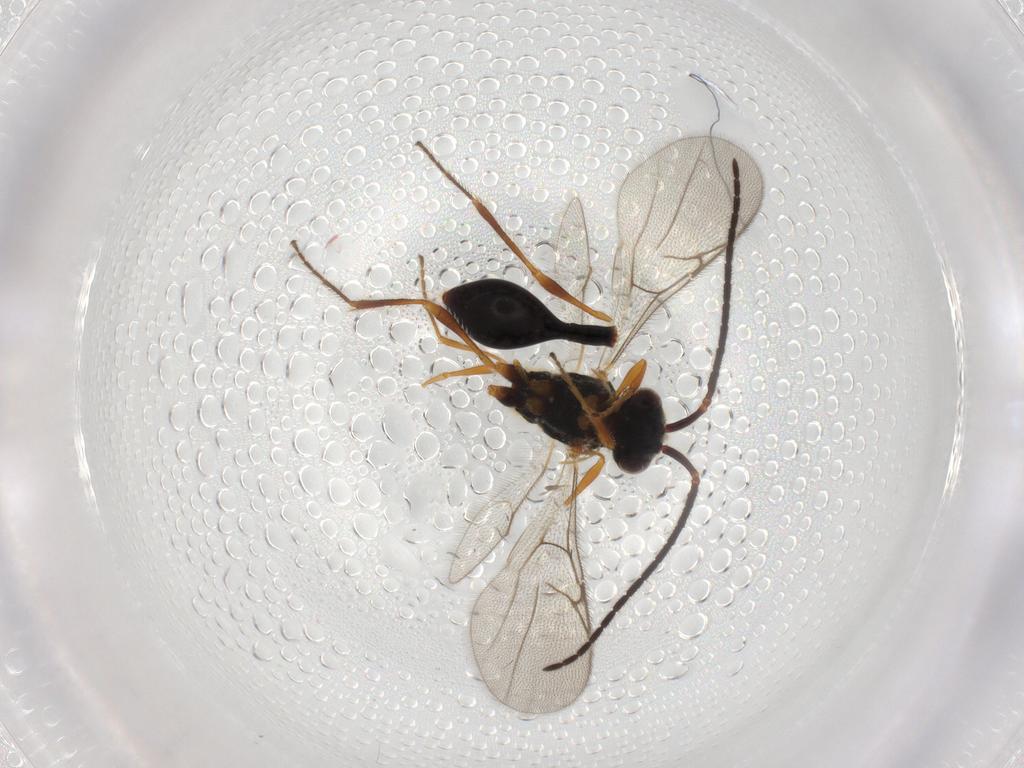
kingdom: Animalia
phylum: Arthropoda
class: Insecta
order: Hymenoptera
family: Diapriidae
